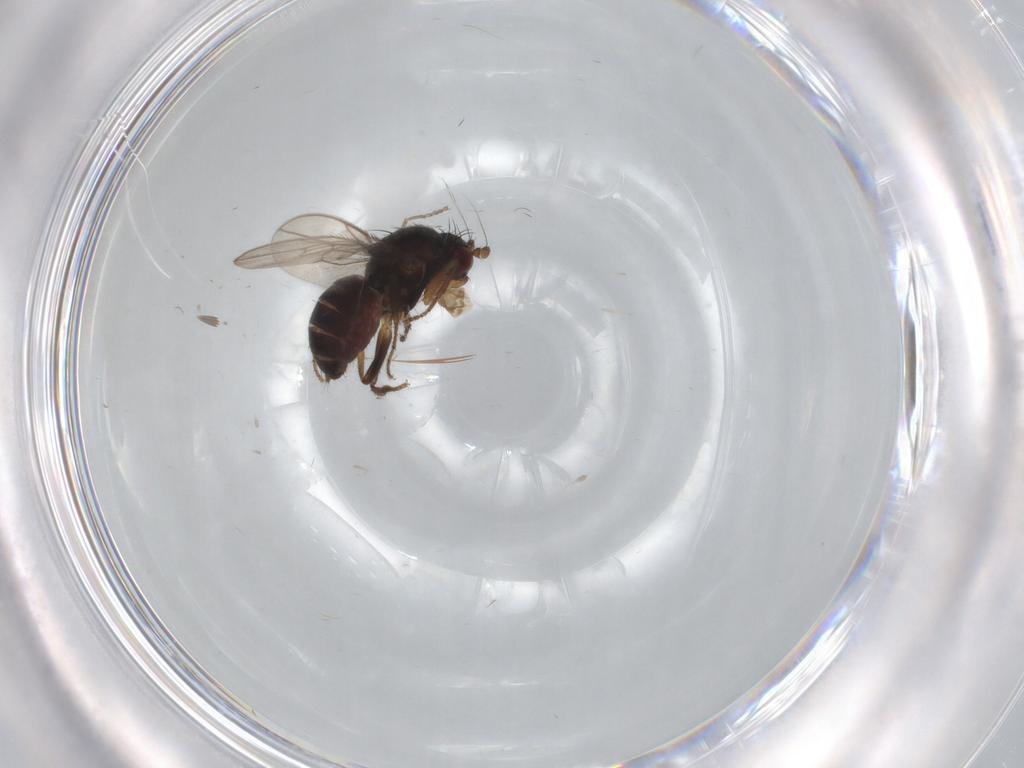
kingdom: Animalia
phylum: Arthropoda
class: Insecta
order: Diptera
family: Sphaeroceridae
